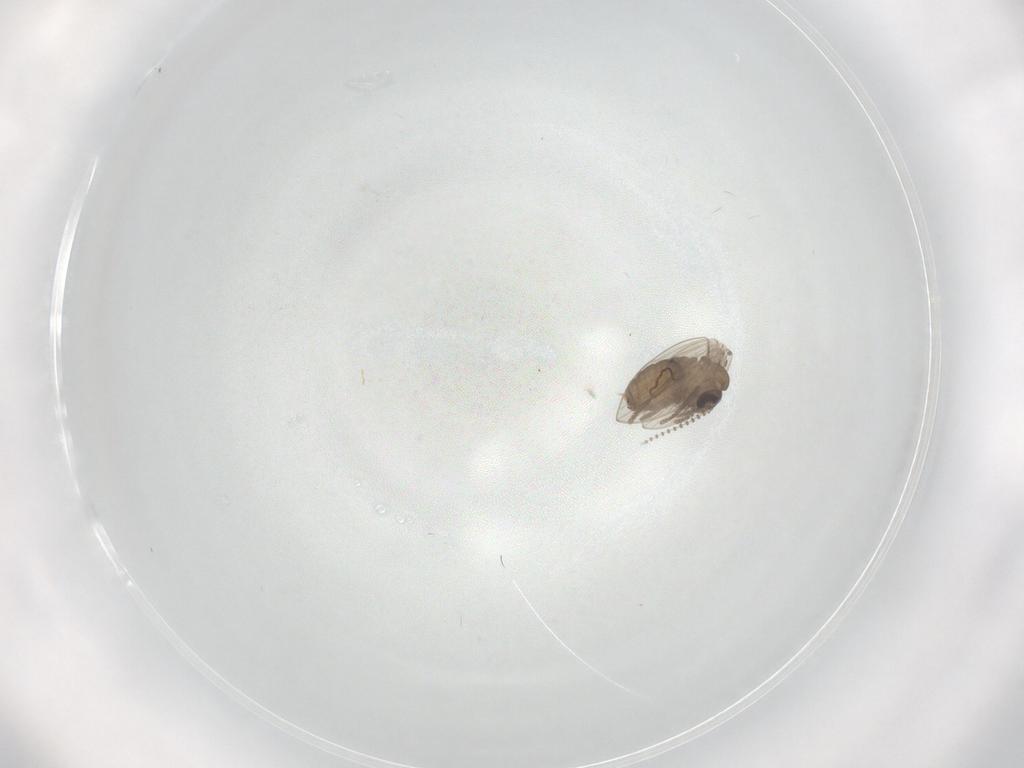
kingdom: Animalia
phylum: Arthropoda
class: Insecta
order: Diptera
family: Psychodidae
